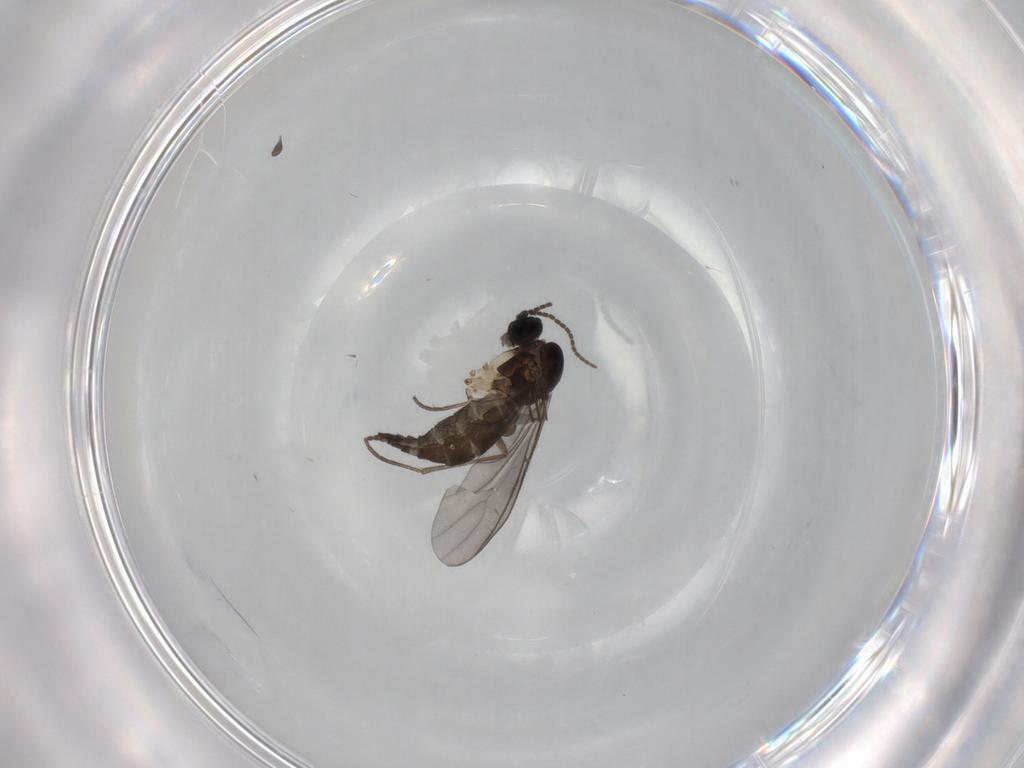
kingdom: Animalia
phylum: Arthropoda
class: Insecta
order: Diptera
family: Sciaridae
